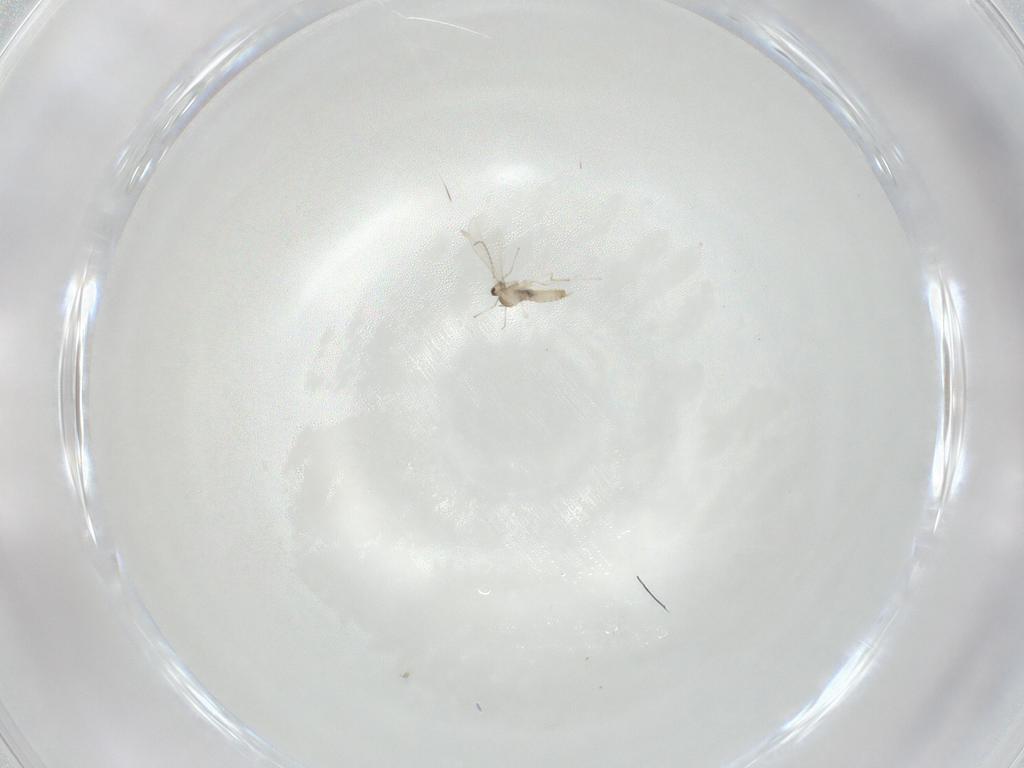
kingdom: Animalia
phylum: Arthropoda
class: Insecta
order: Diptera
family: Cecidomyiidae
